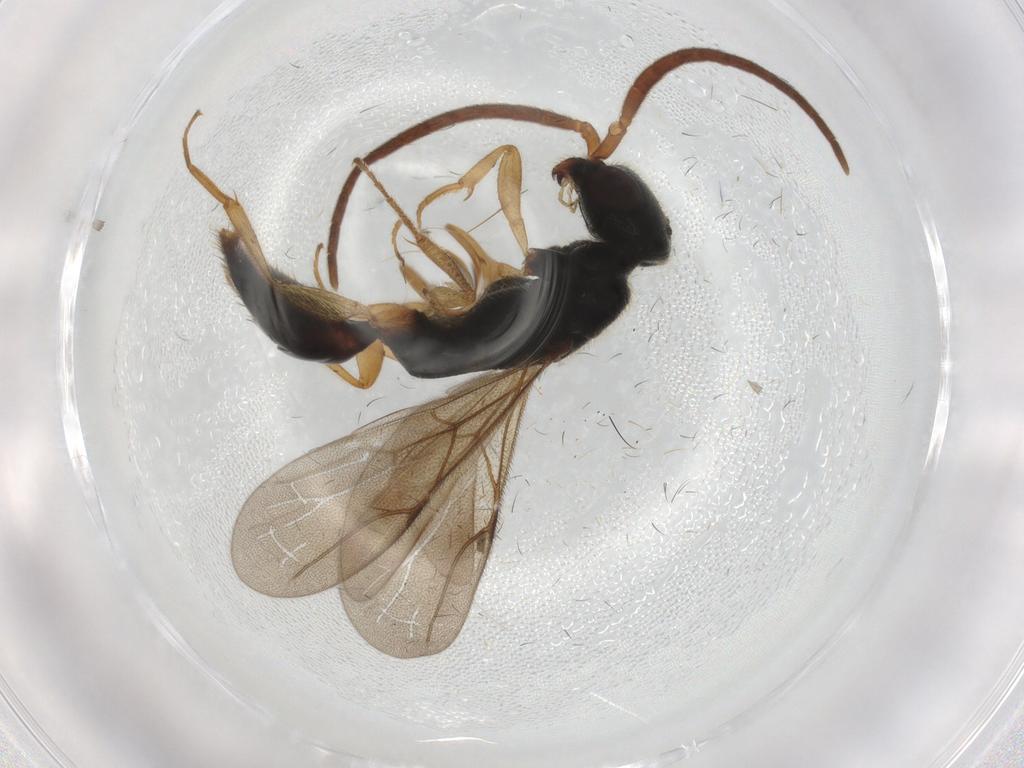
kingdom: Animalia
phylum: Arthropoda
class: Insecta
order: Hymenoptera
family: Bethylidae
